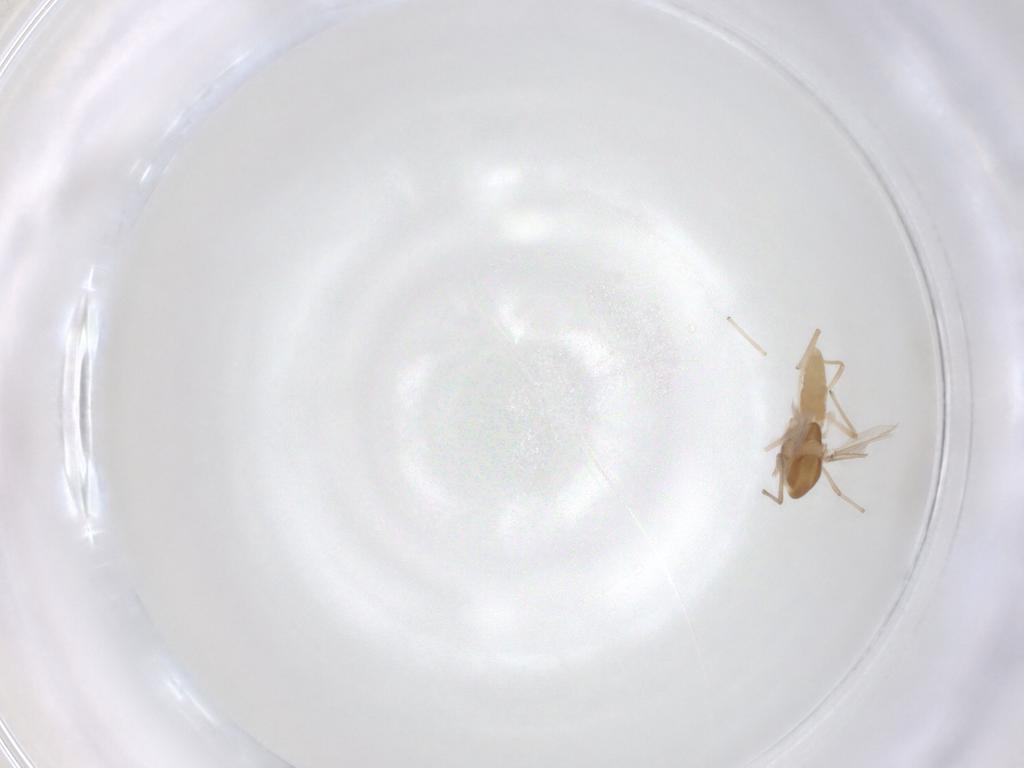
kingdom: Animalia
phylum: Arthropoda
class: Insecta
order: Diptera
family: Chironomidae
